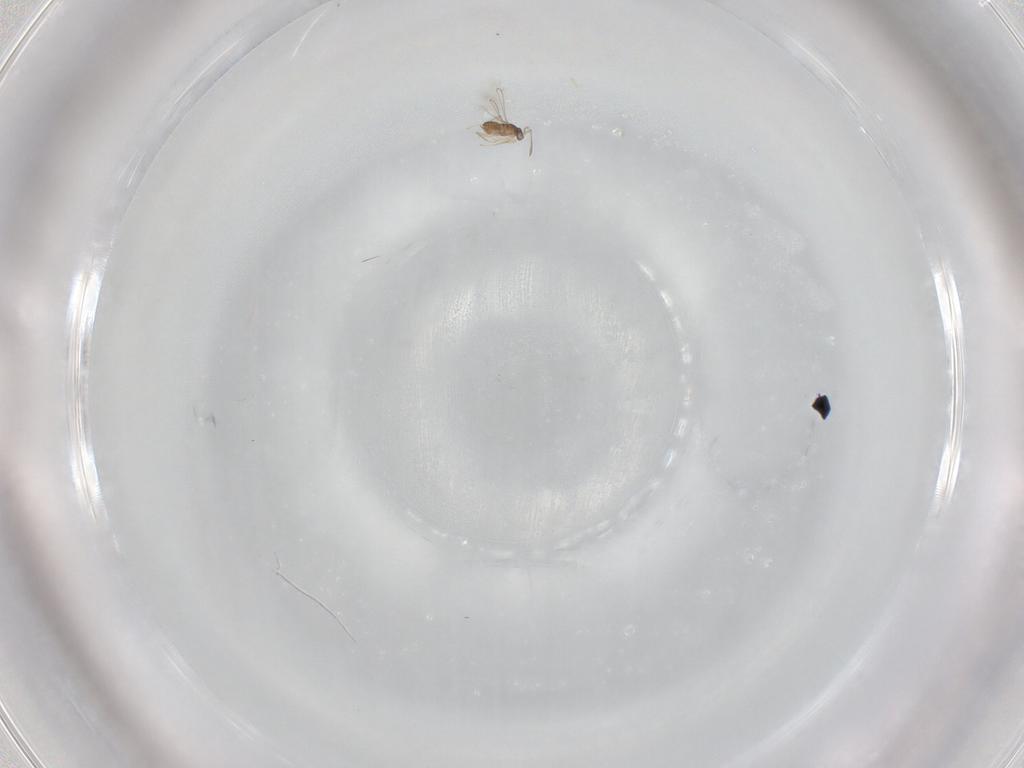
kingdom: Animalia
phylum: Arthropoda
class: Insecta
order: Hymenoptera
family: Mymaridae
